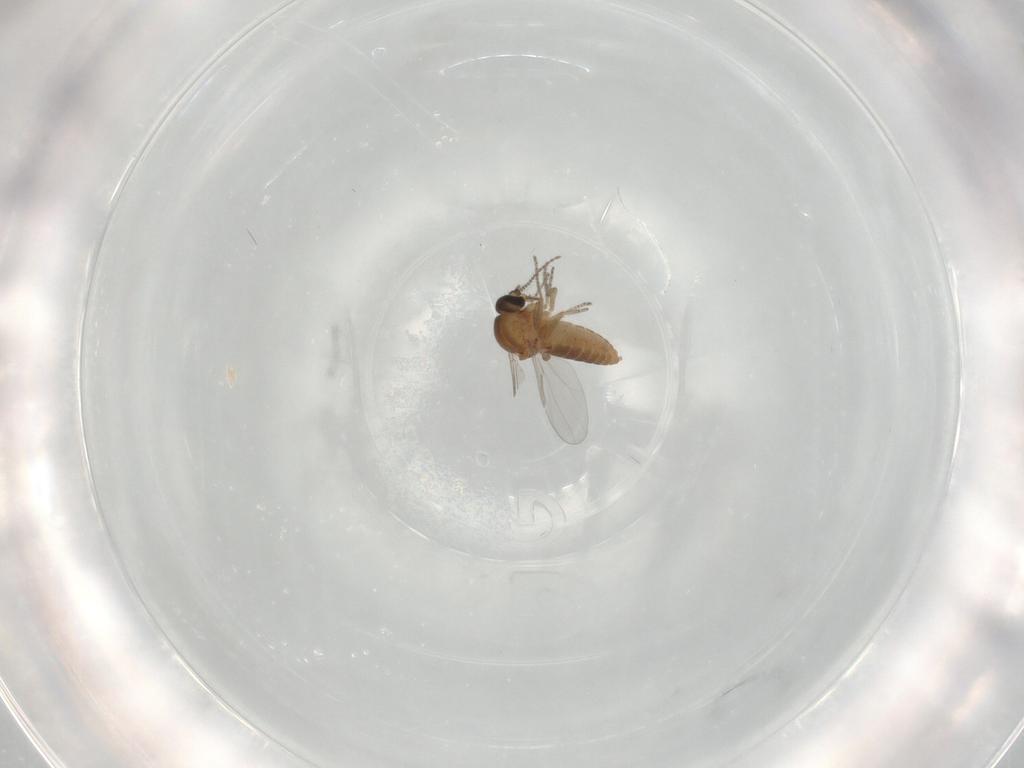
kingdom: Animalia
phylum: Arthropoda
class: Insecta
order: Diptera
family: Ceratopogonidae
